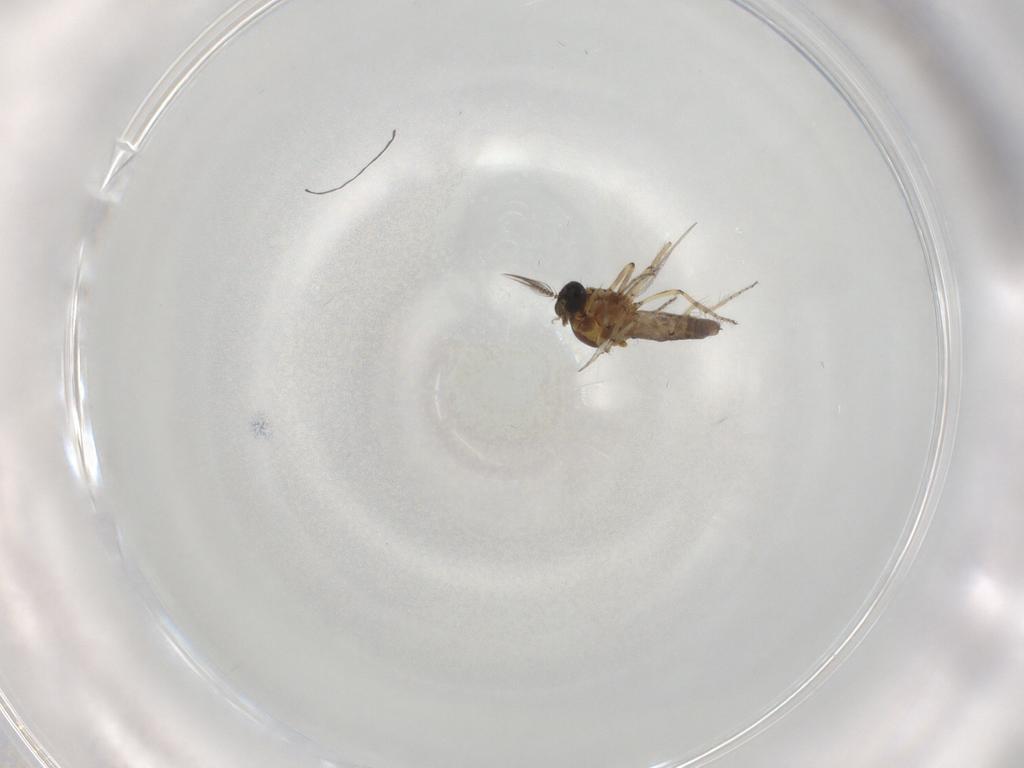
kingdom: Animalia
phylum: Arthropoda
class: Insecta
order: Diptera
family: Ceratopogonidae
